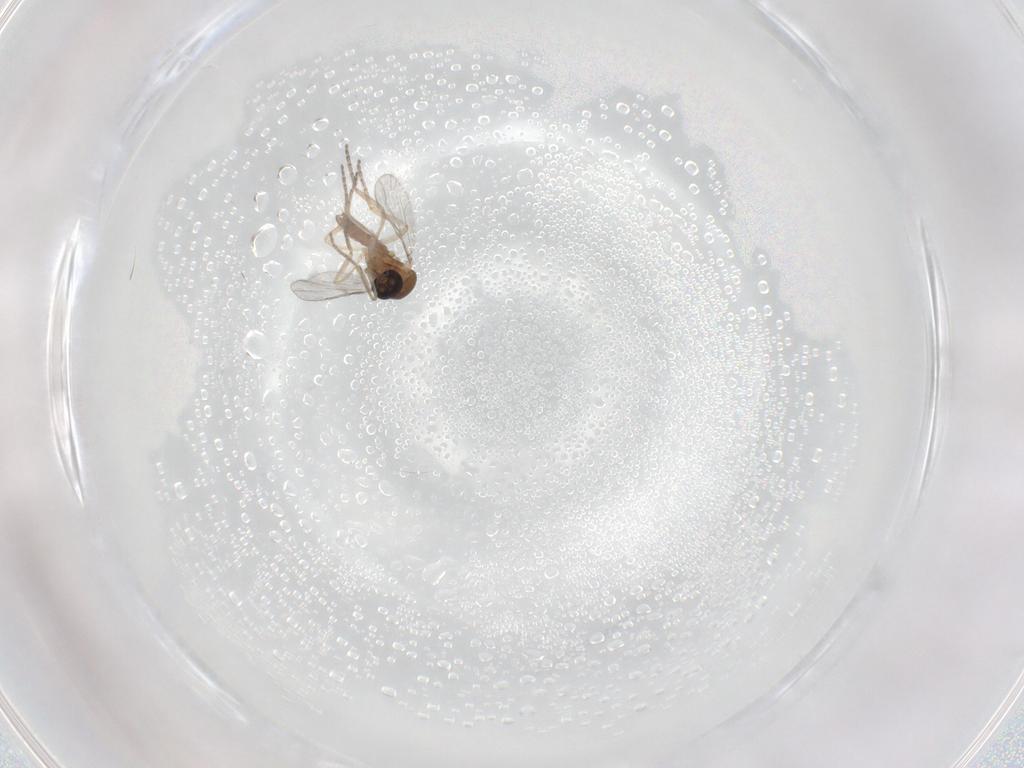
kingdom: Animalia
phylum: Arthropoda
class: Insecta
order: Diptera
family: Ceratopogonidae
